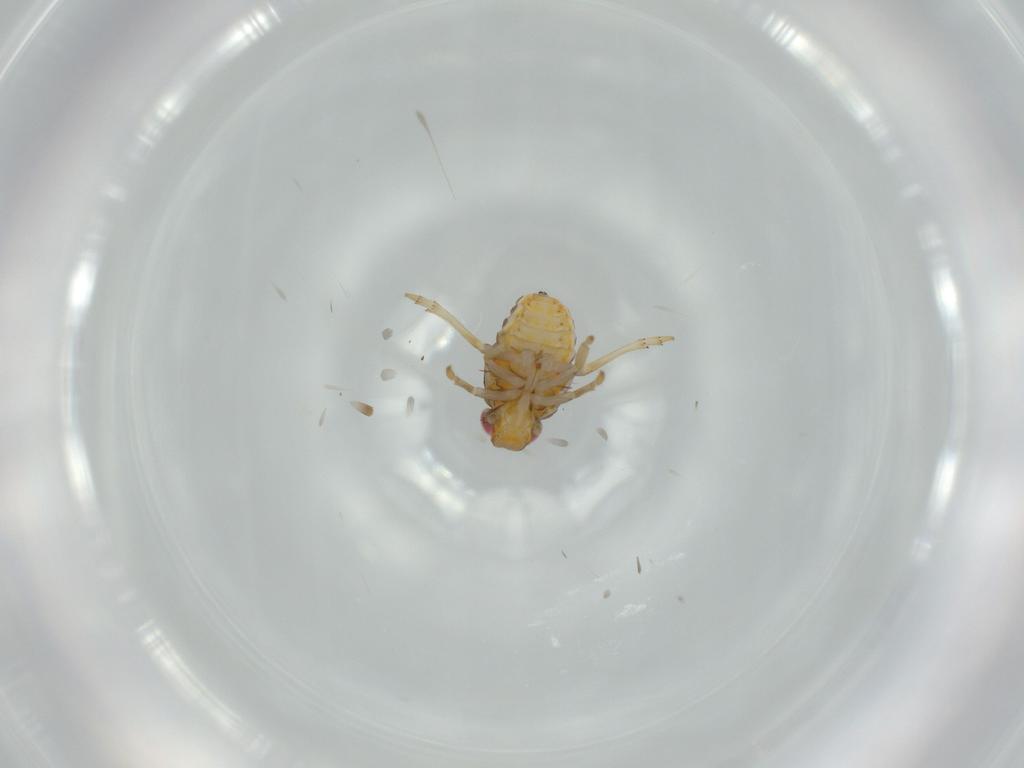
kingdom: Animalia
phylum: Arthropoda
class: Insecta
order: Hemiptera
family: Issidae
